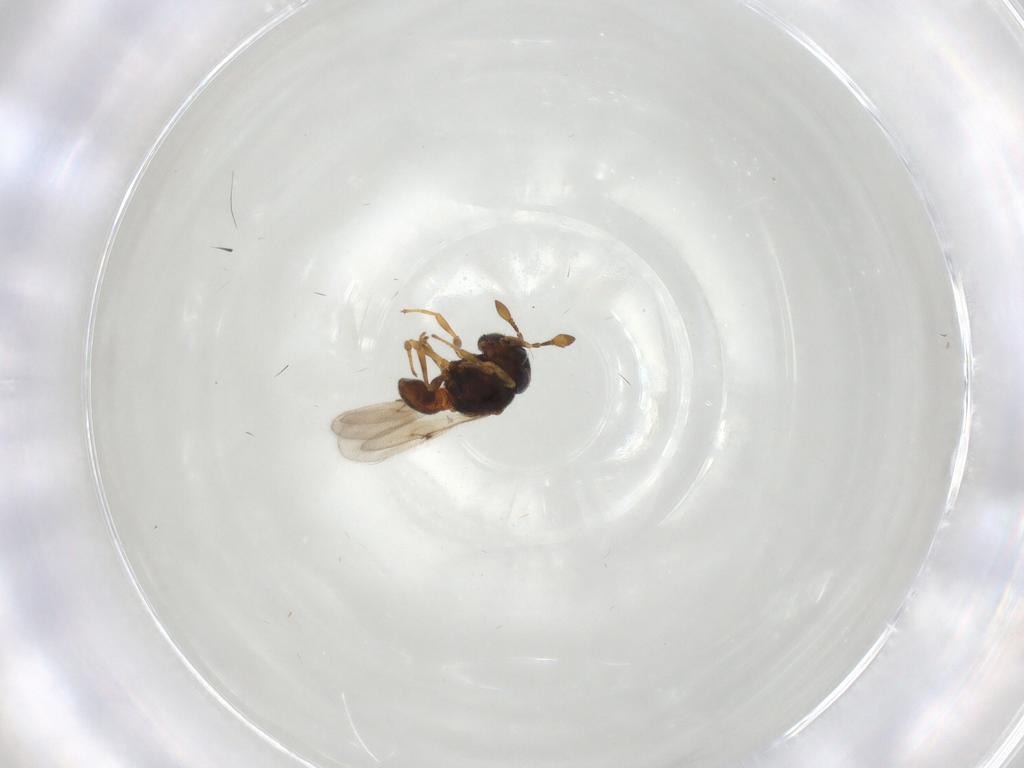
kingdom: Animalia
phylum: Arthropoda
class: Insecta
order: Hymenoptera
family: Scelionidae
